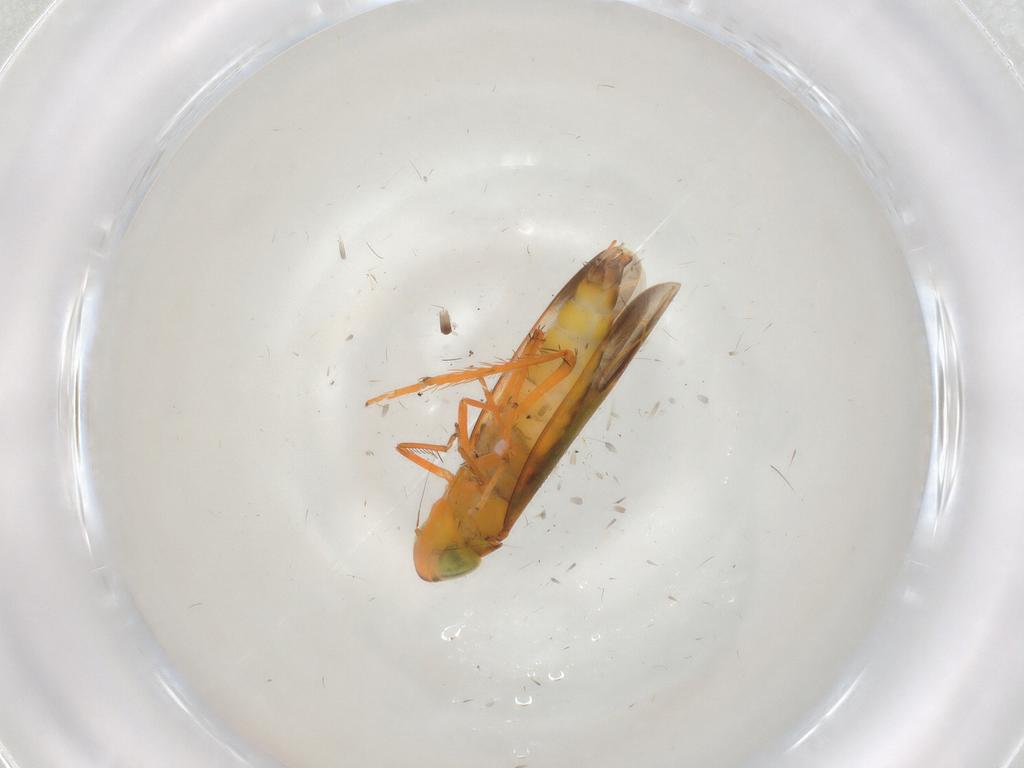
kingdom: Animalia
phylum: Arthropoda
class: Insecta
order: Hemiptera
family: Cicadellidae
